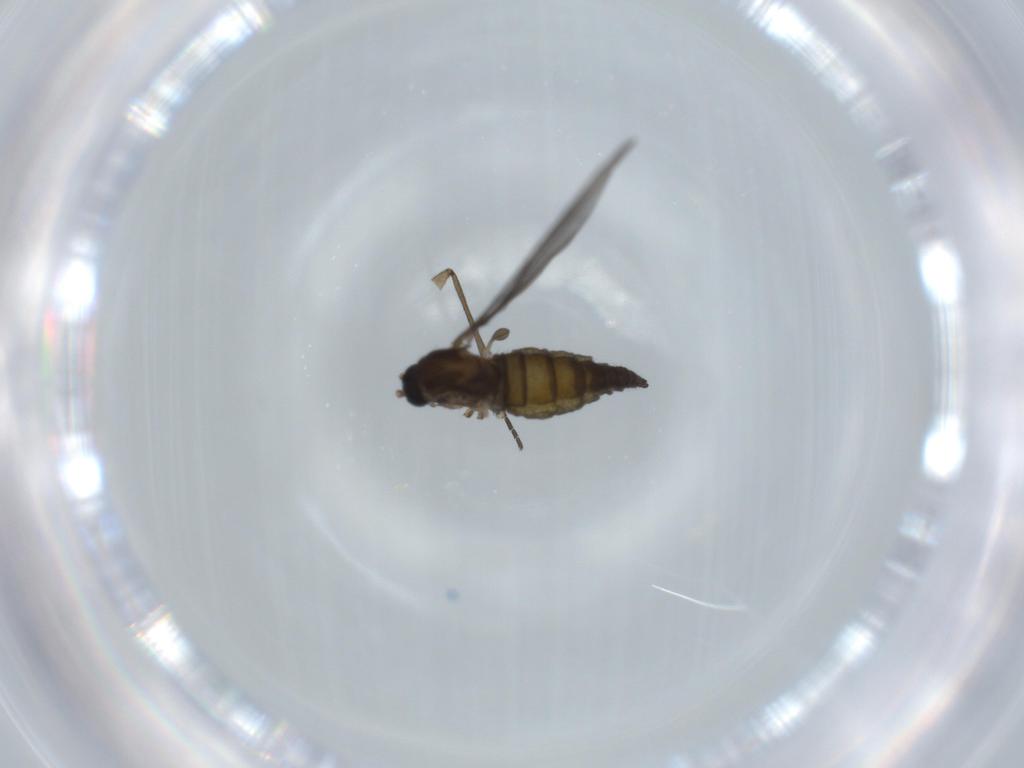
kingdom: Animalia
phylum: Arthropoda
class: Insecta
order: Diptera
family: Sciaridae
